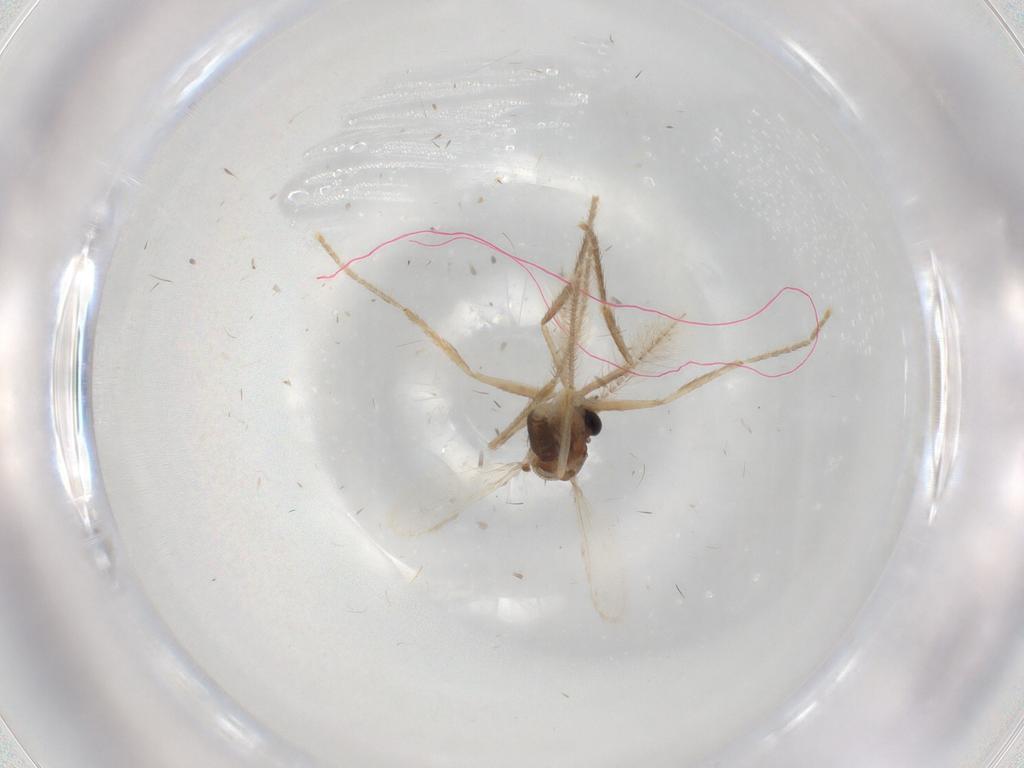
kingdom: Animalia
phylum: Arthropoda
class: Insecta
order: Diptera
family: Corethrellidae
